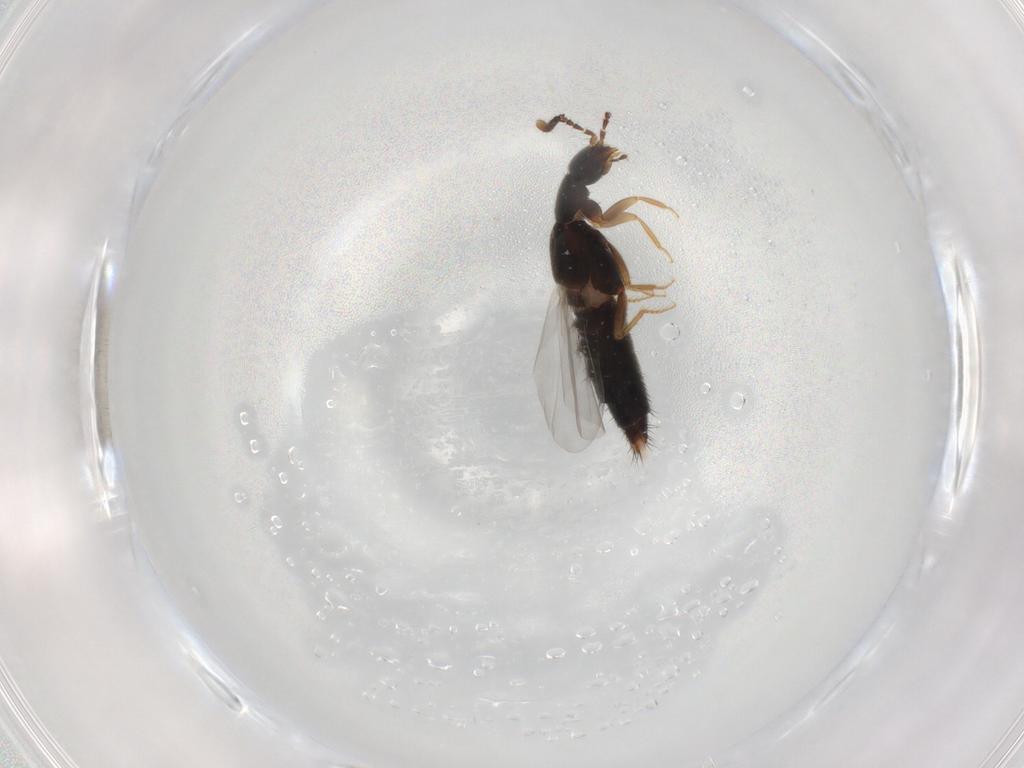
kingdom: Animalia
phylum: Arthropoda
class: Insecta
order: Coleoptera
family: Staphylinidae
